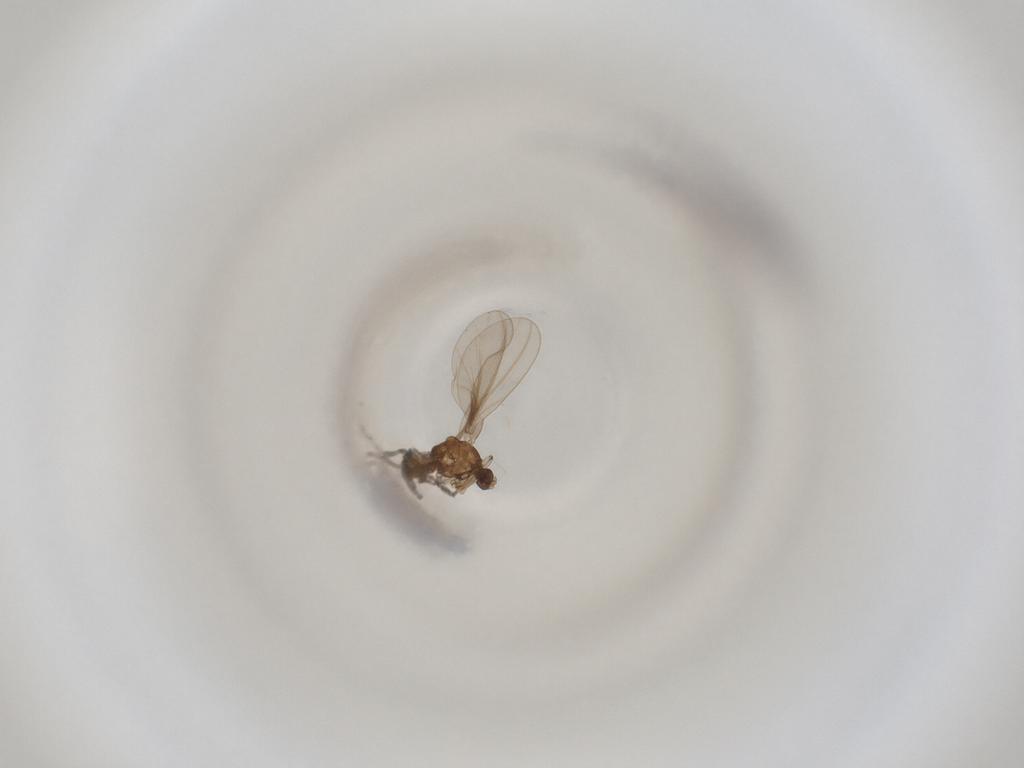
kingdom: Animalia
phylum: Arthropoda
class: Insecta
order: Diptera
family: Cecidomyiidae
